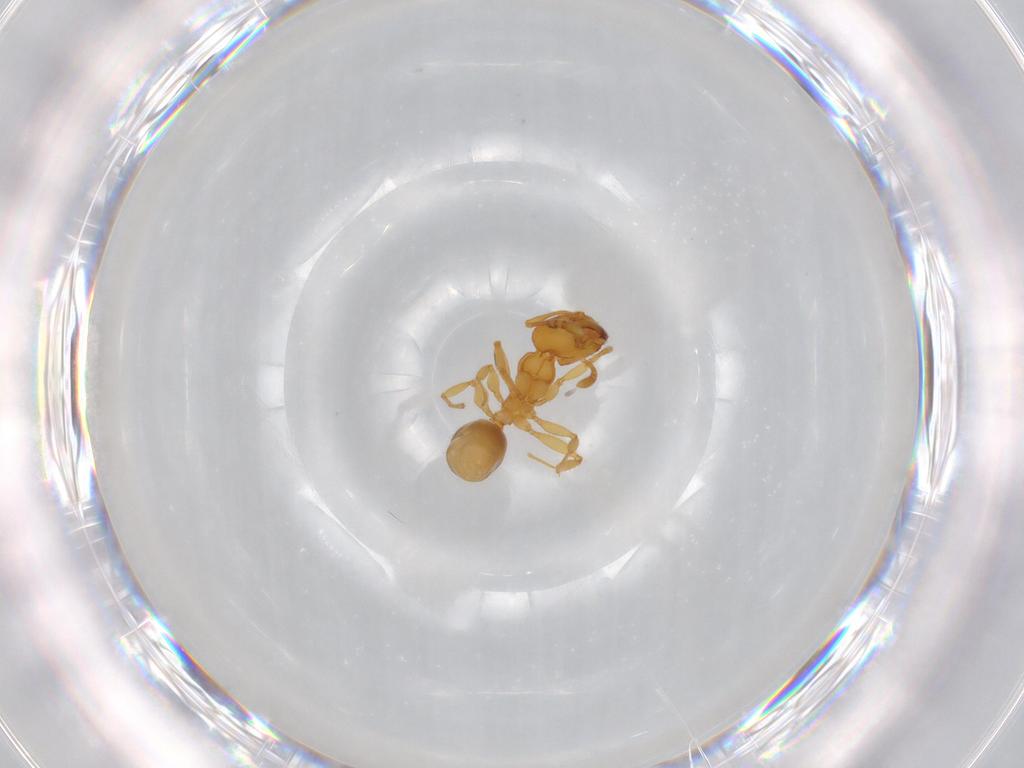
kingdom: Animalia
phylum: Arthropoda
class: Insecta
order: Hymenoptera
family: Formicidae
